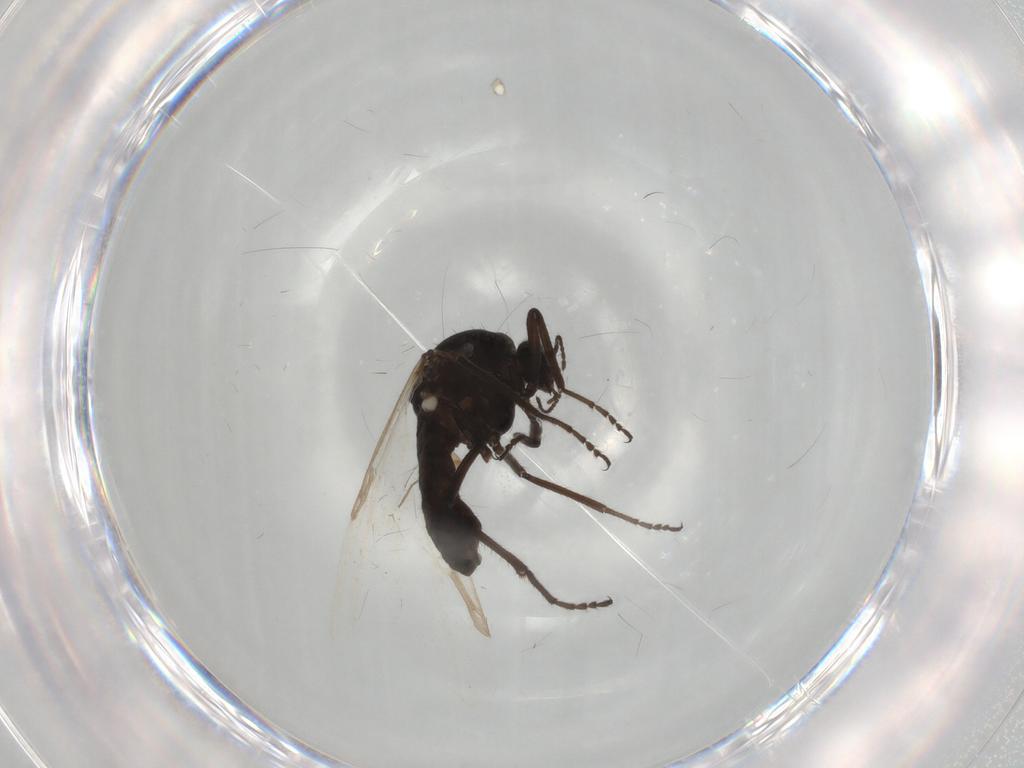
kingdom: Animalia
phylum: Arthropoda
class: Insecta
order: Diptera
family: Ceratopogonidae
